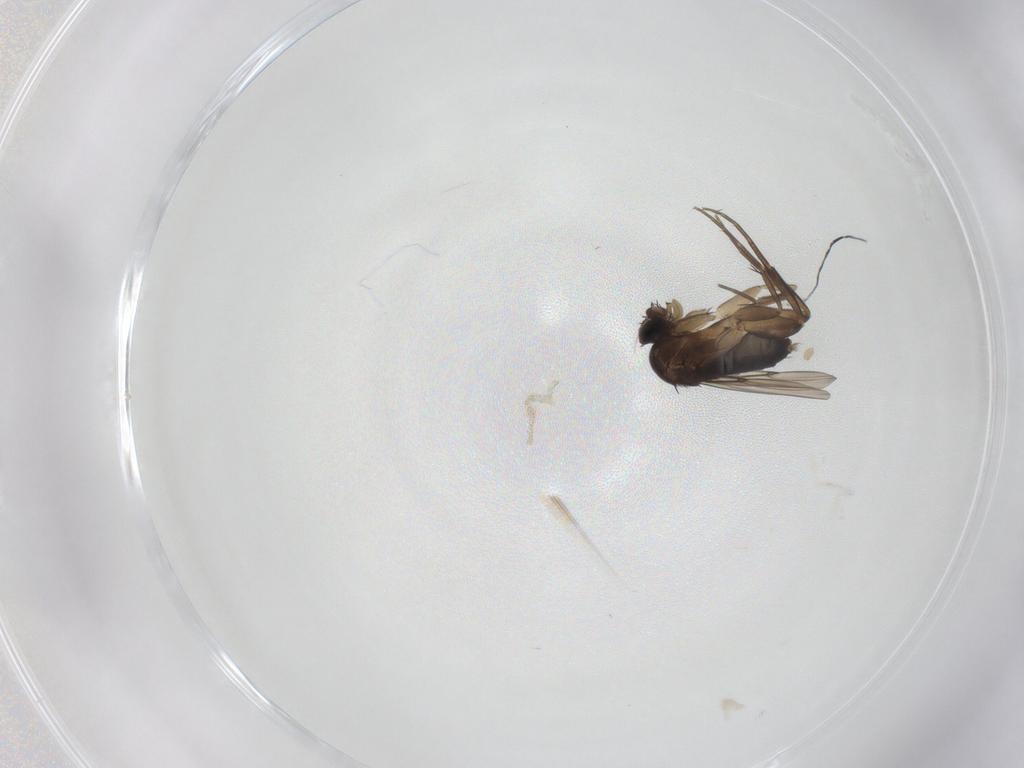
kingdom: Animalia
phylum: Arthropoda
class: Insecta
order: Diptera
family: Phoridae
